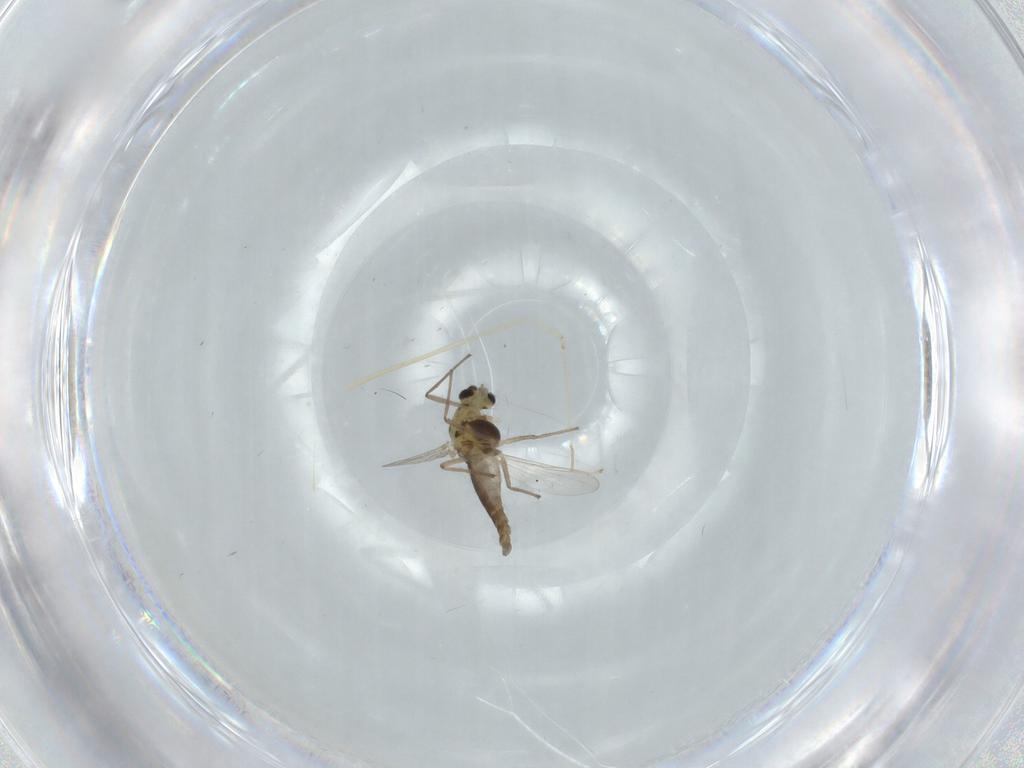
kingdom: Animalia
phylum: Arthropoda
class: Insecta
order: Diptera
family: Chironomidae
